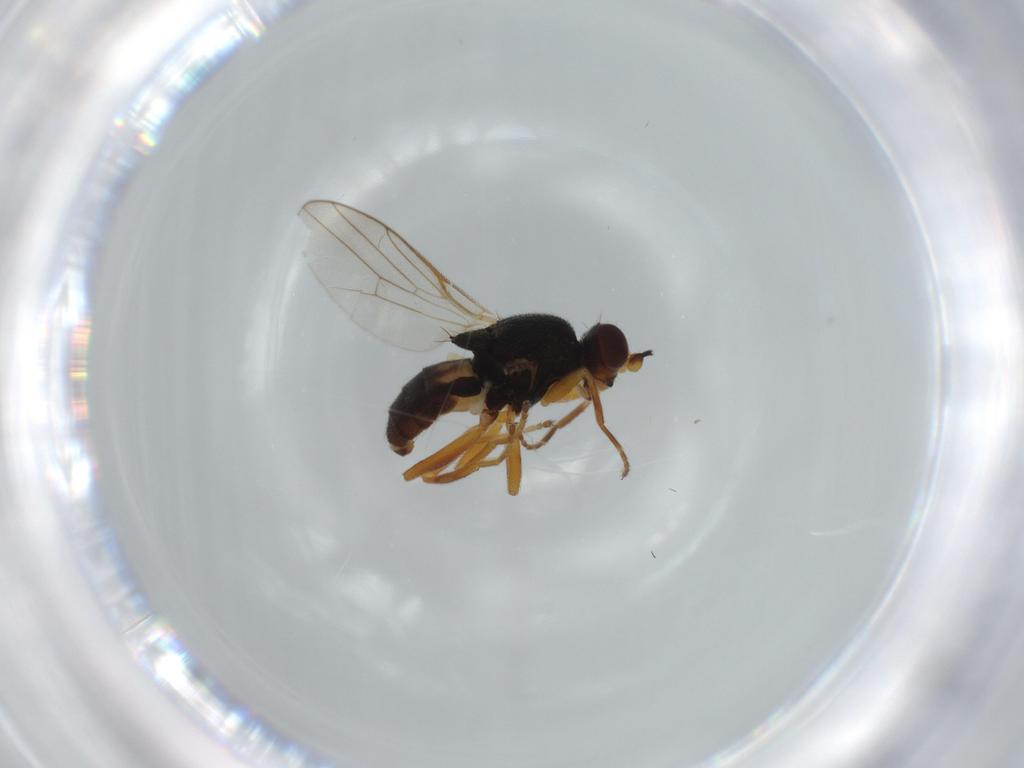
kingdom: Animalia
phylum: Arthropoda
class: Insecta
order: Diptera
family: Chloropidae
